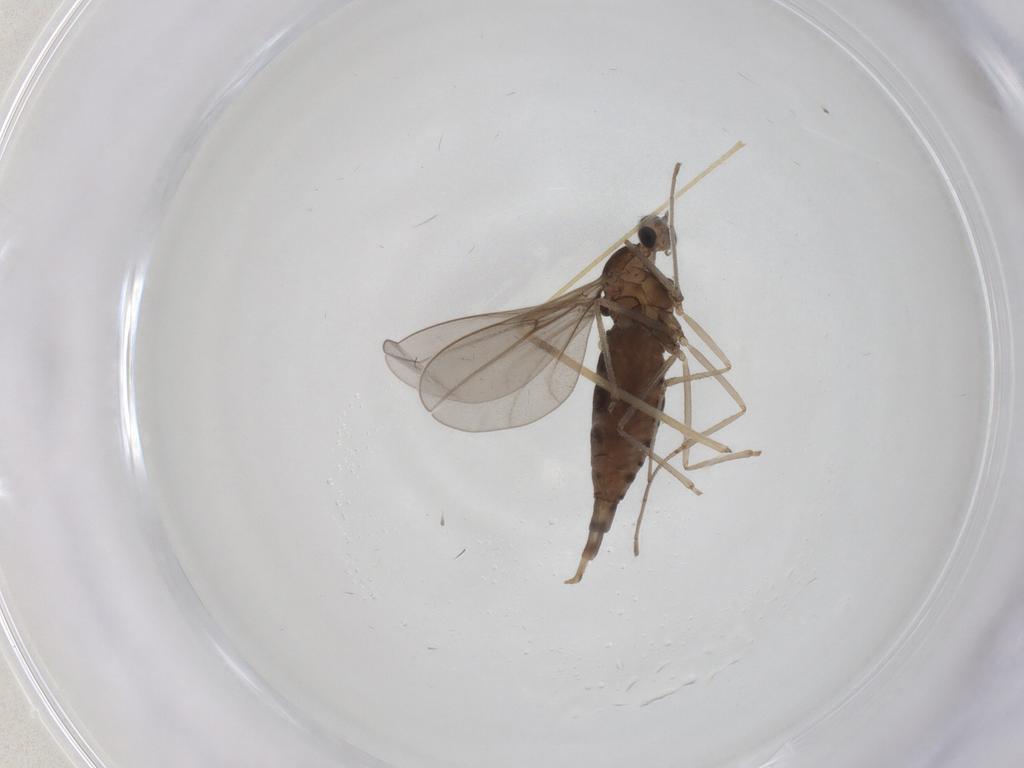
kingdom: Animalia
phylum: Arthropoda
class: Insecta
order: Diptera
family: Cecidomyiidae
